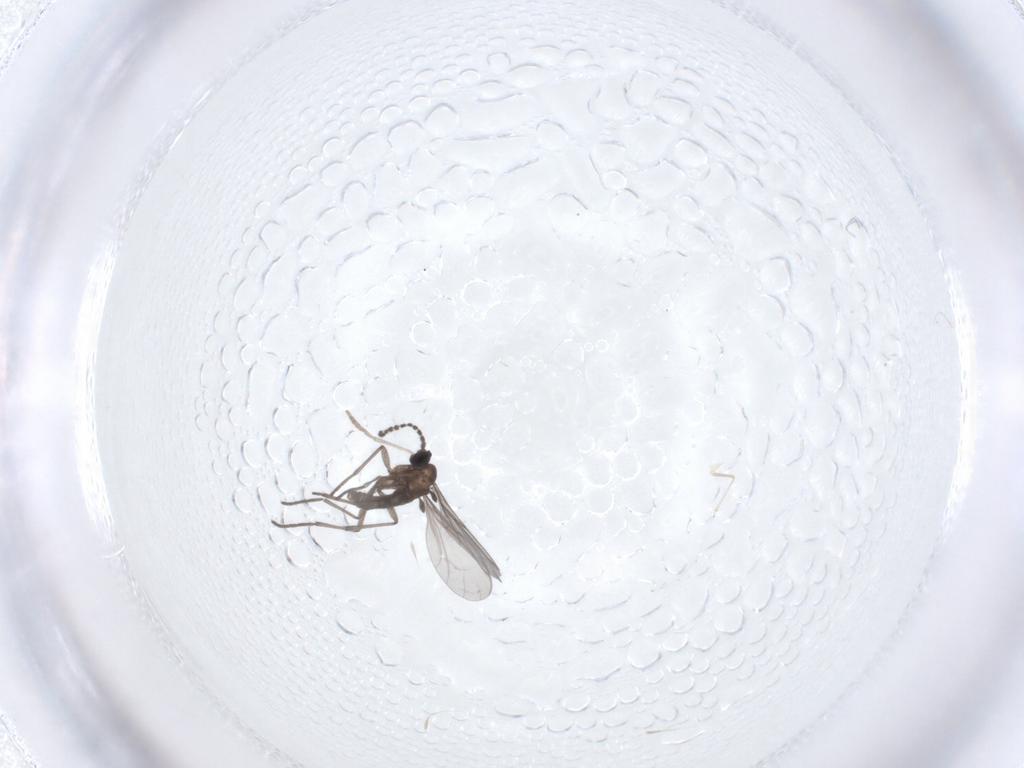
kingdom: Animalia
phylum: Arthropoda
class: Insecta
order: Diptera
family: Psychodidae
